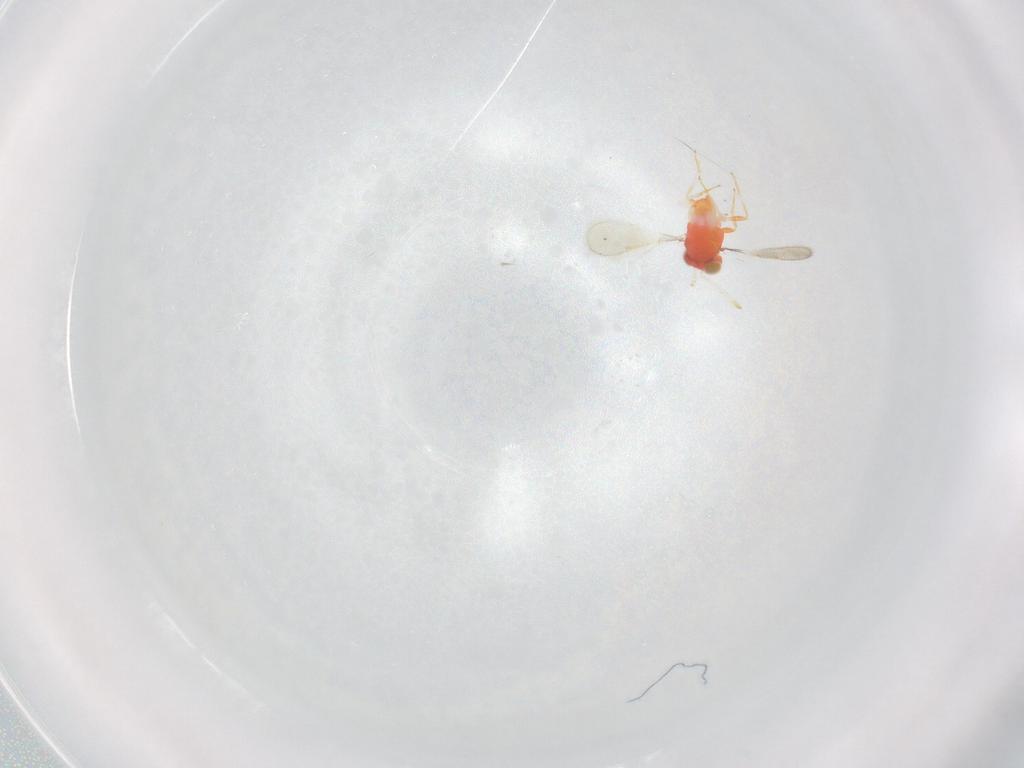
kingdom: Animalia
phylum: Arthropoda
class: Insecta
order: Hymenoptera
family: Aphelinidae
